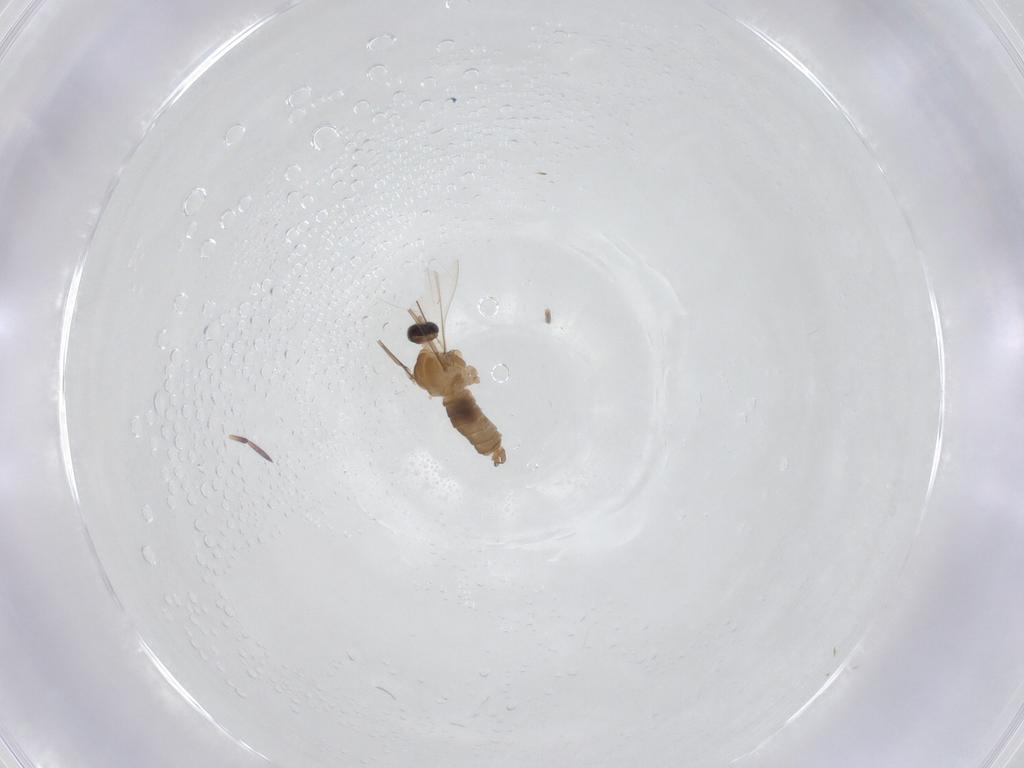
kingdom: Animalia
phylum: Arthropoda
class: Insecta
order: Diptera
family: Cecidomyiidae
